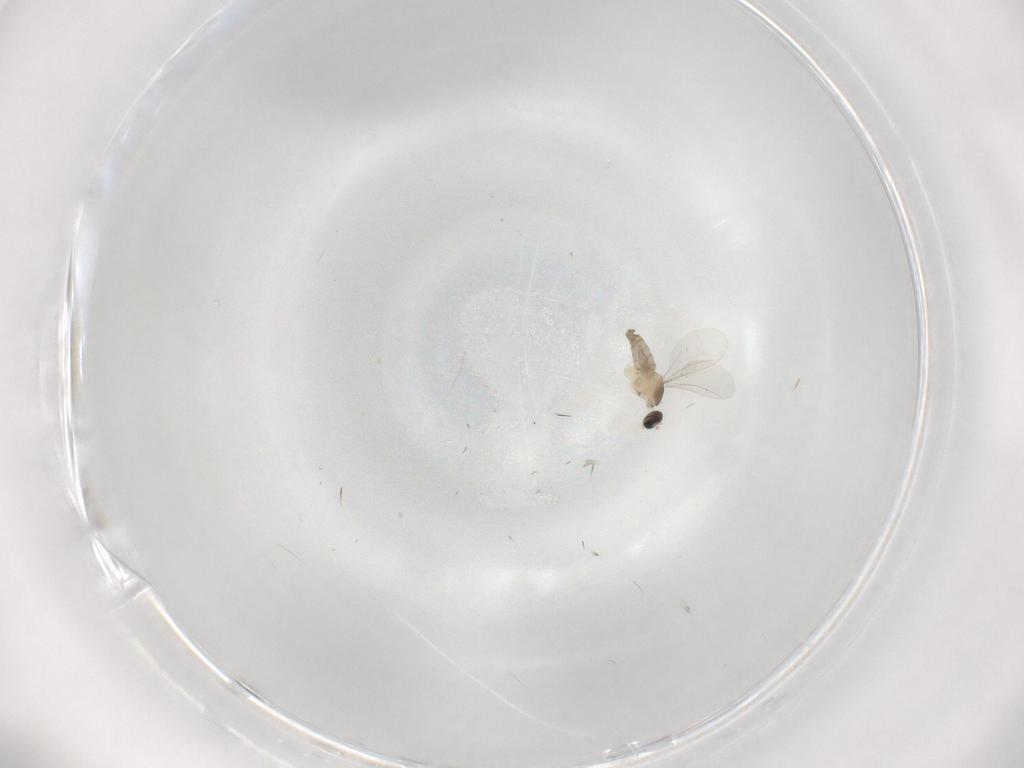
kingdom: Animalia
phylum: Arthropoda
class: Insecta
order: Diptera
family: Cecidomyiidae
